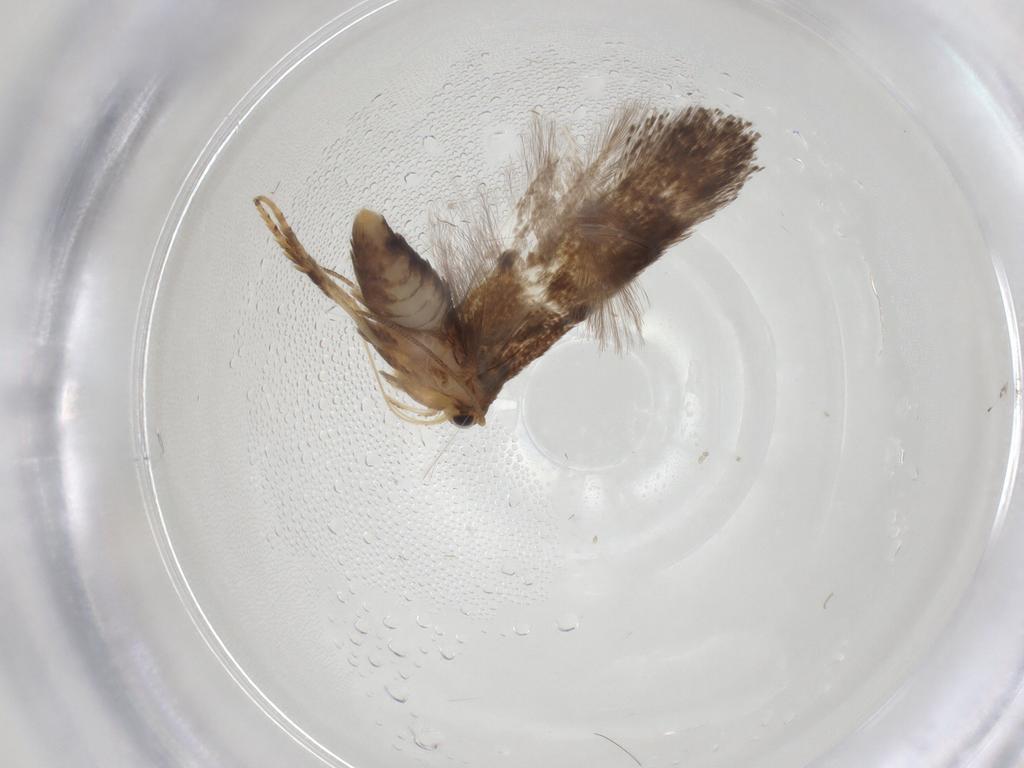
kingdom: Animalia
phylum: Arthropoda
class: Insecta
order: Lepidoptera
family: Gelechiidae
